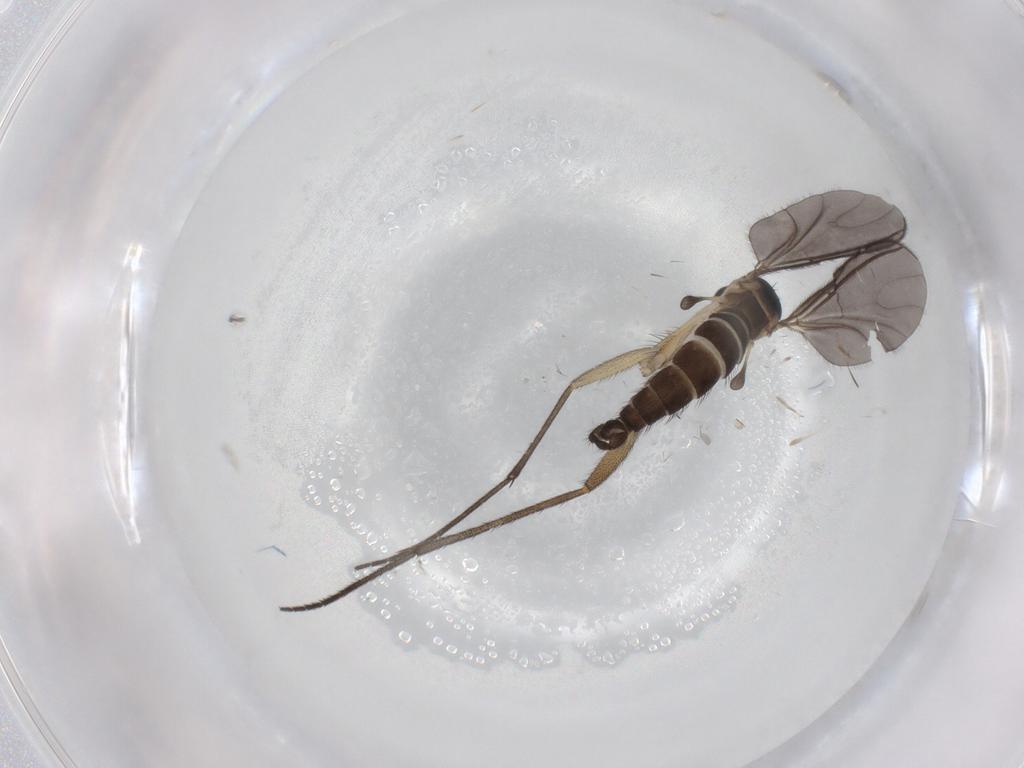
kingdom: Animalia
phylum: Arthropoda
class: Insecta
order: Diptera
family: Sciaridae
